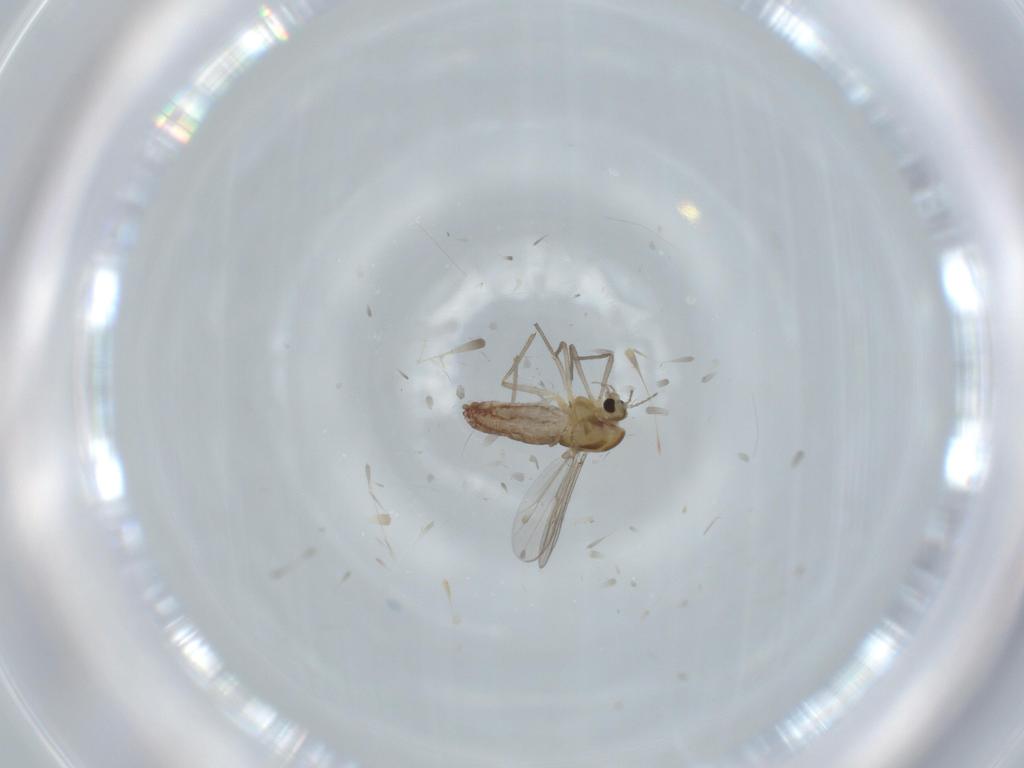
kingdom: Animalia
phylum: Arthropoda
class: Insecta
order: Diptera
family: Chironomidae
